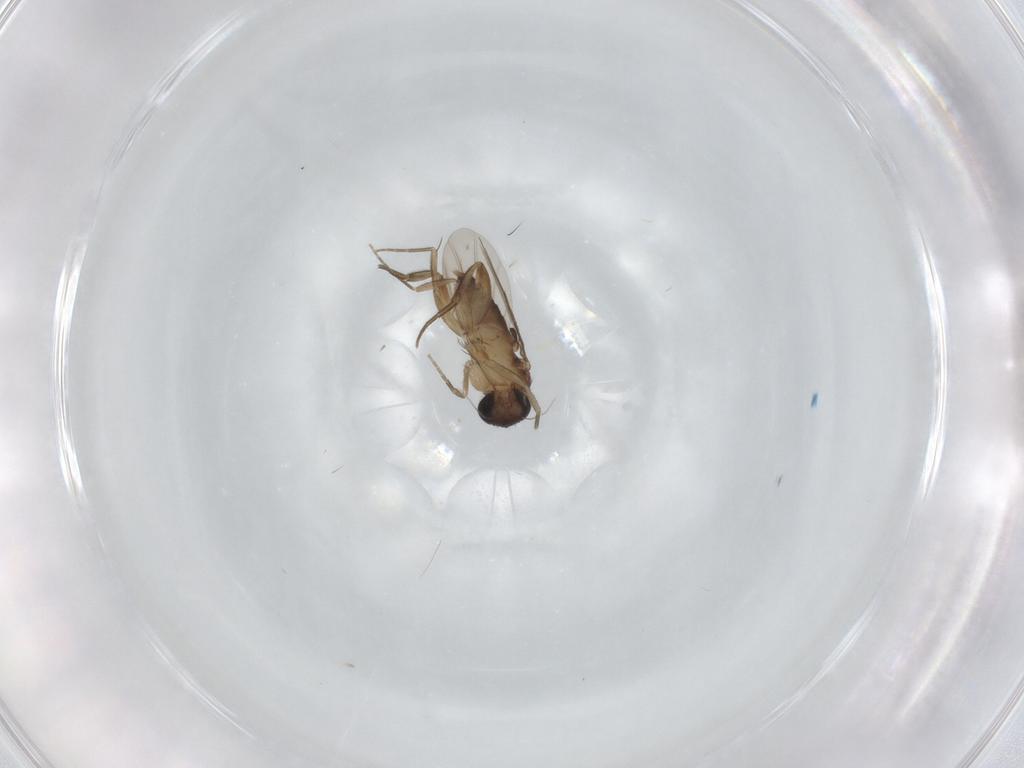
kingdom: Animalia
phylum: Arthropoda
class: Insecta
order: Diptera
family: Phoridae
